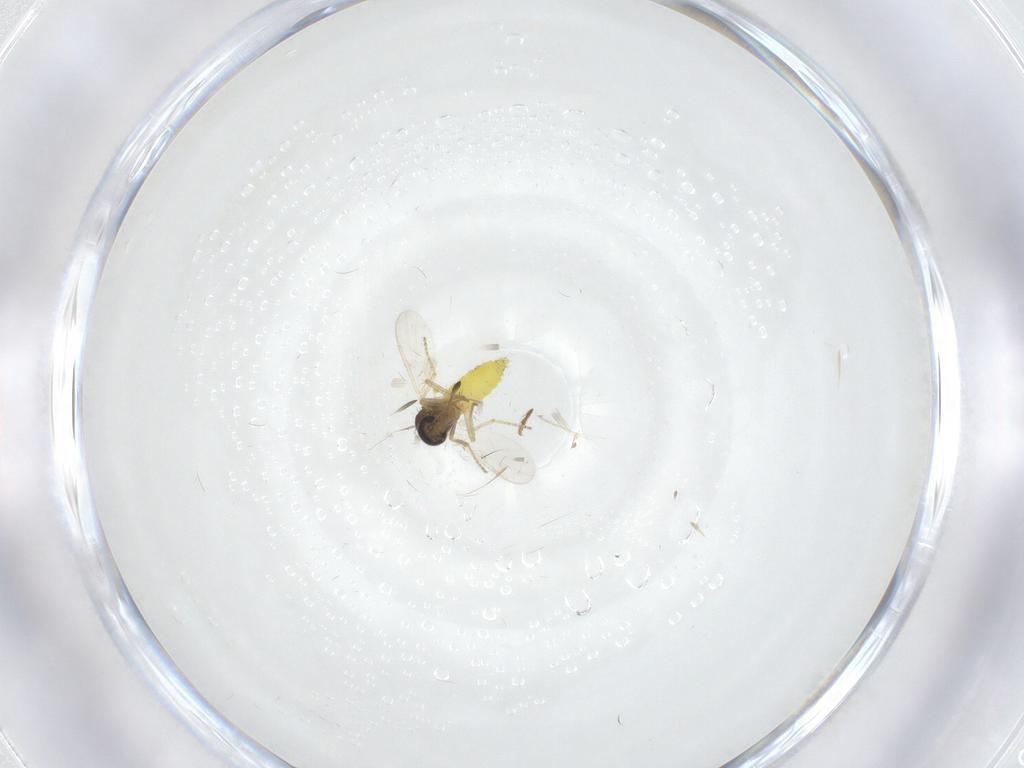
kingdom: Animalia
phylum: Arthropoda
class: Insecta
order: Diptera
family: Ceratopogonidae
